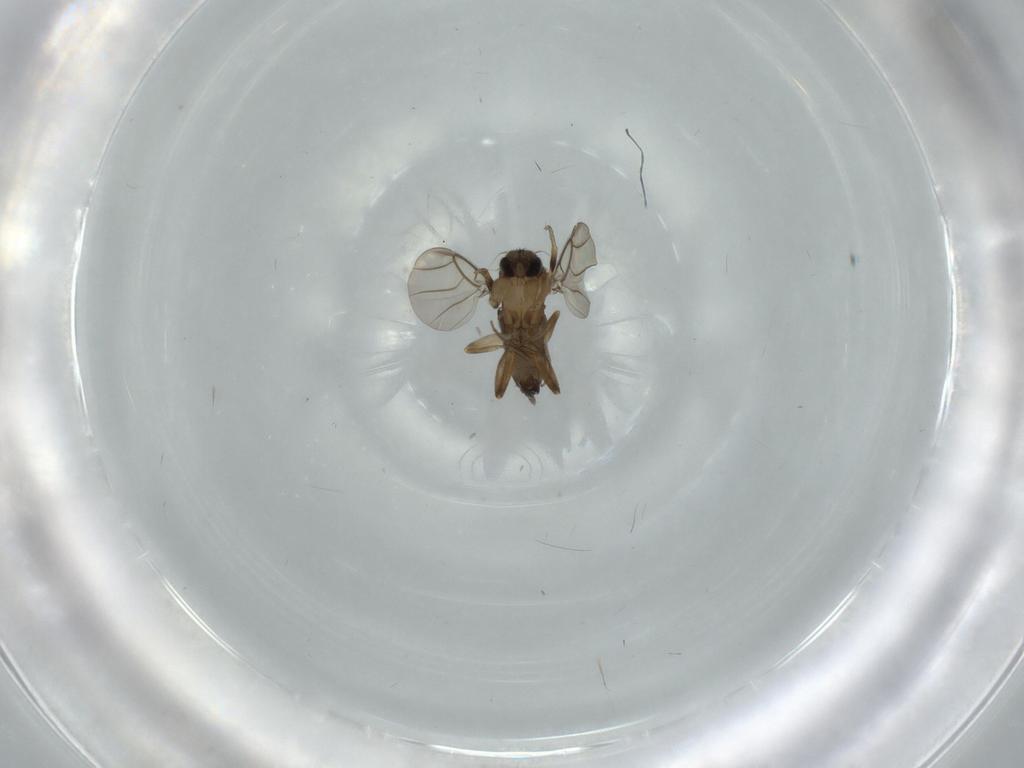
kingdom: Animalia
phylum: Arthropoda
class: Insecta
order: Diptera
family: Phoridae
